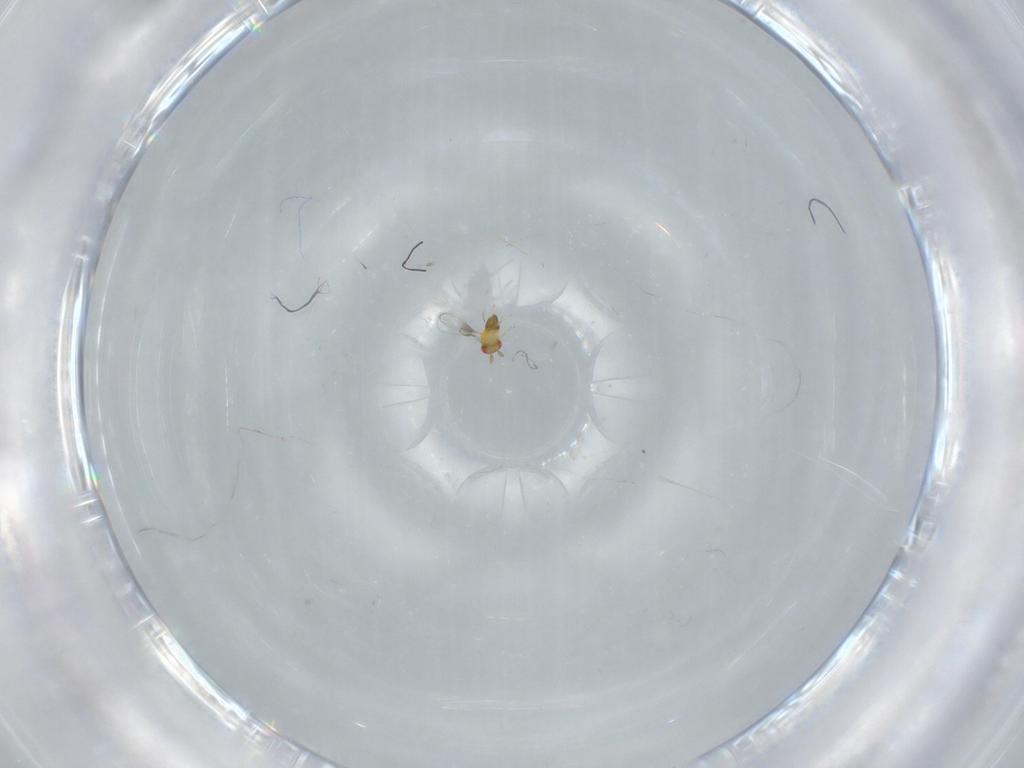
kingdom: Animalia
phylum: Arthropoda
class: Insecta
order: Hymenoptera
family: Trichogrammatidae
